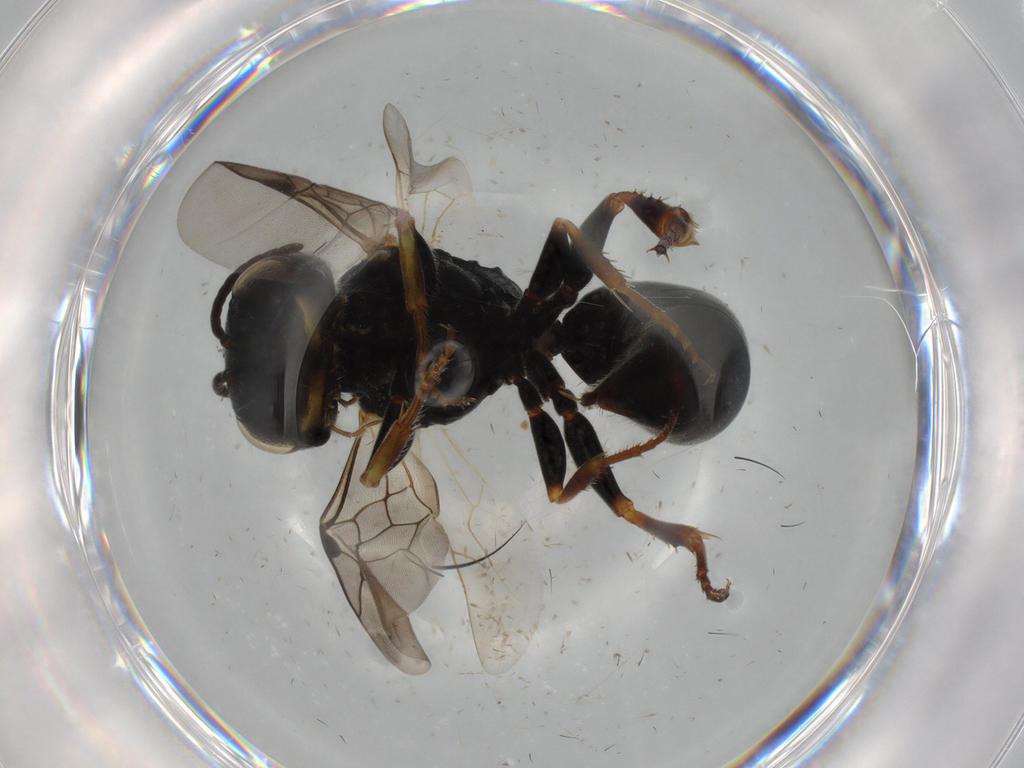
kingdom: Animalia
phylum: Arthropoda
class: Insecta
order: Hymenoptera
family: Crabronidae
